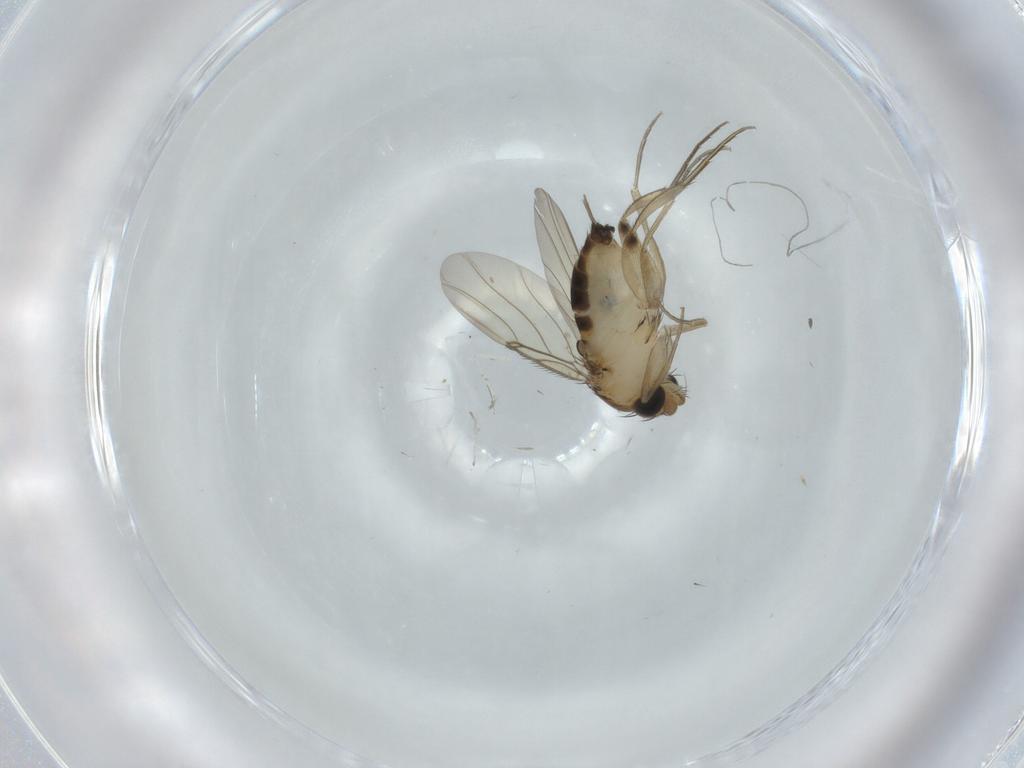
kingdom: Animalia
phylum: Arthropoda
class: Insecta
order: Diptera
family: Phoridae
